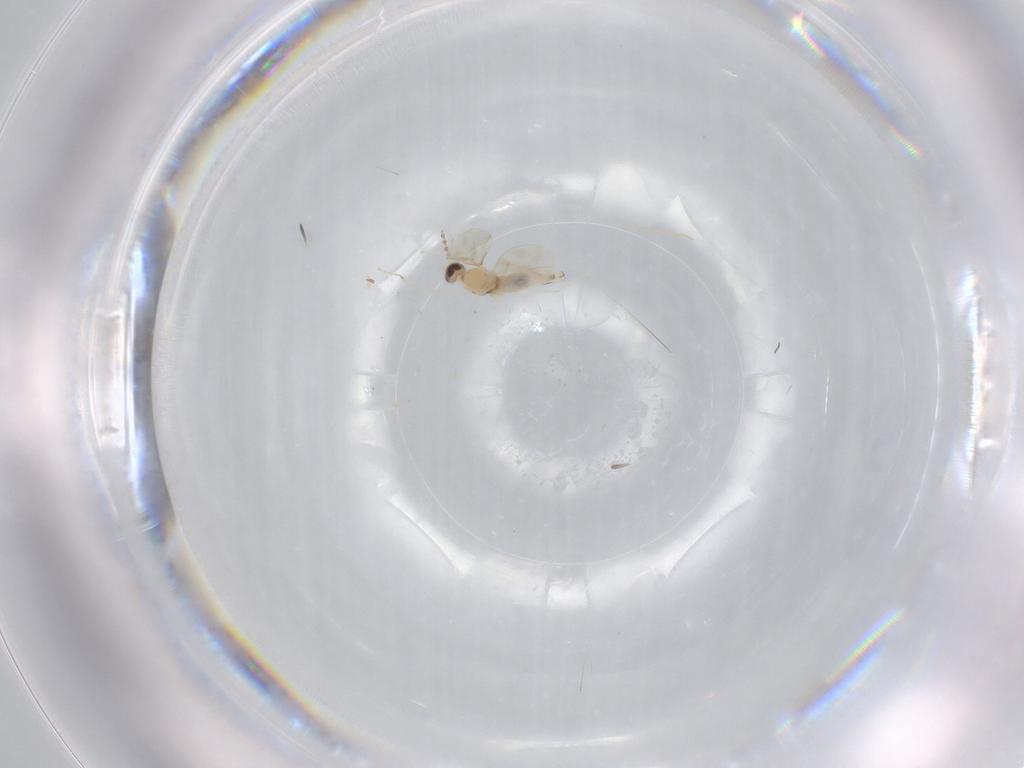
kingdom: Animalia
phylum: Arthropoda
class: Insecta
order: Diptera
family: Cecidomyiidae
